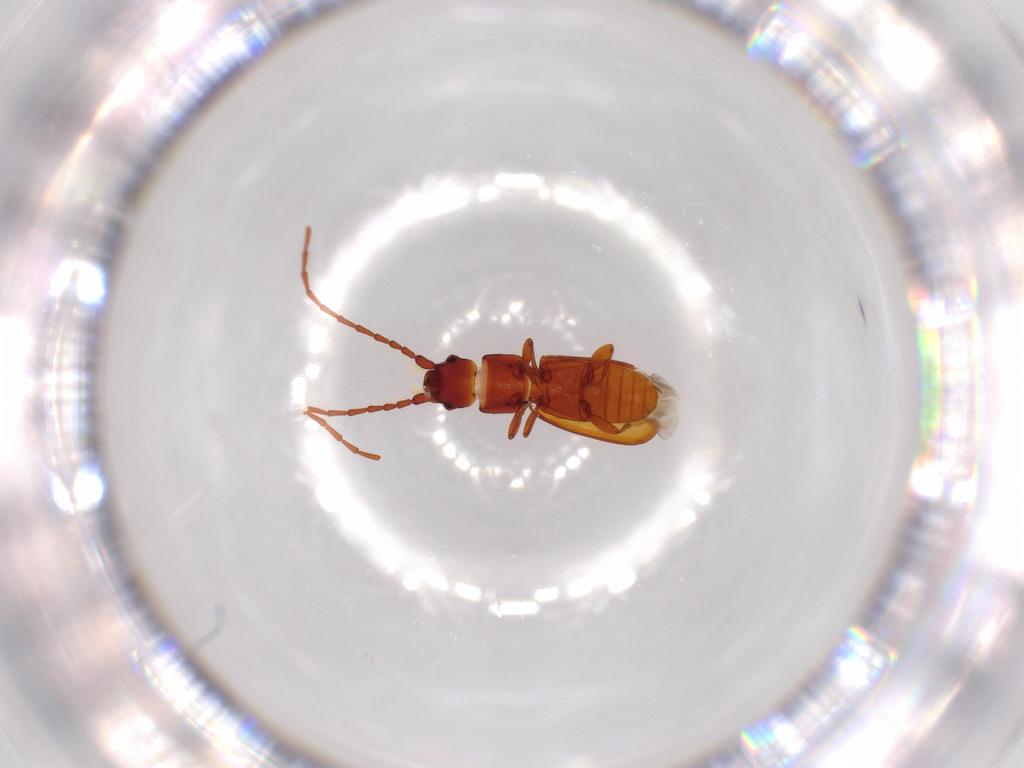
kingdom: Animalia
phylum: Arthropoda
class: Insecta
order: Coleoptera
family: Laemophloeidae
